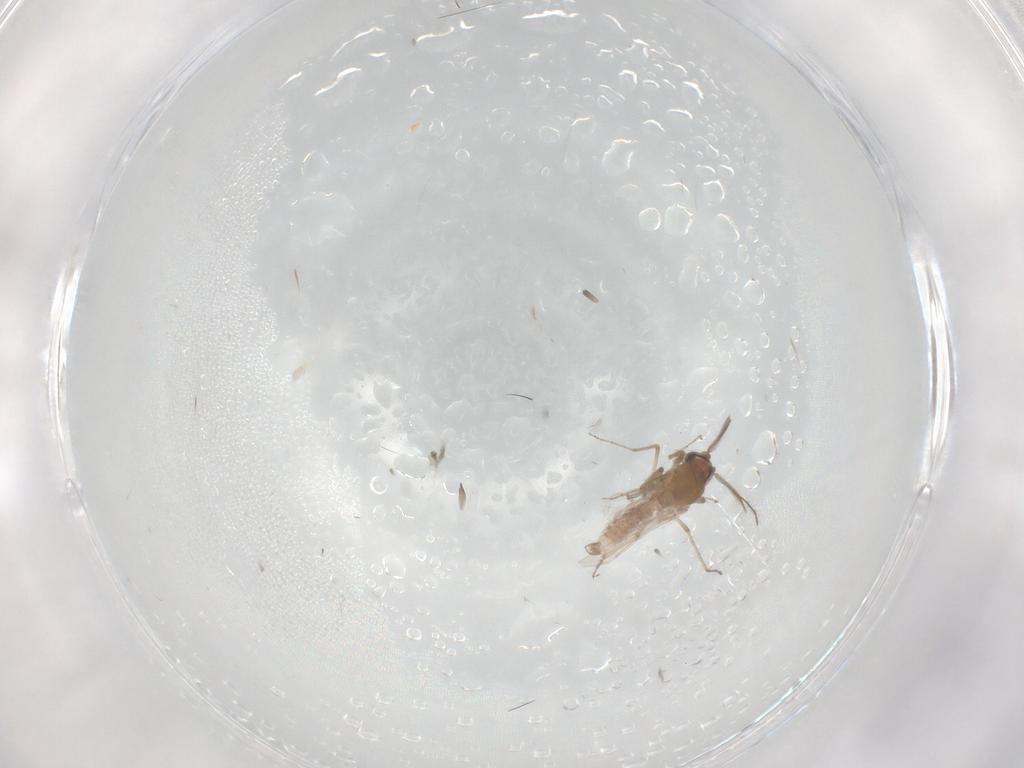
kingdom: Animalia
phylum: Arthropoda
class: Insecta
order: Diptera
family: Ceratopogonidae
